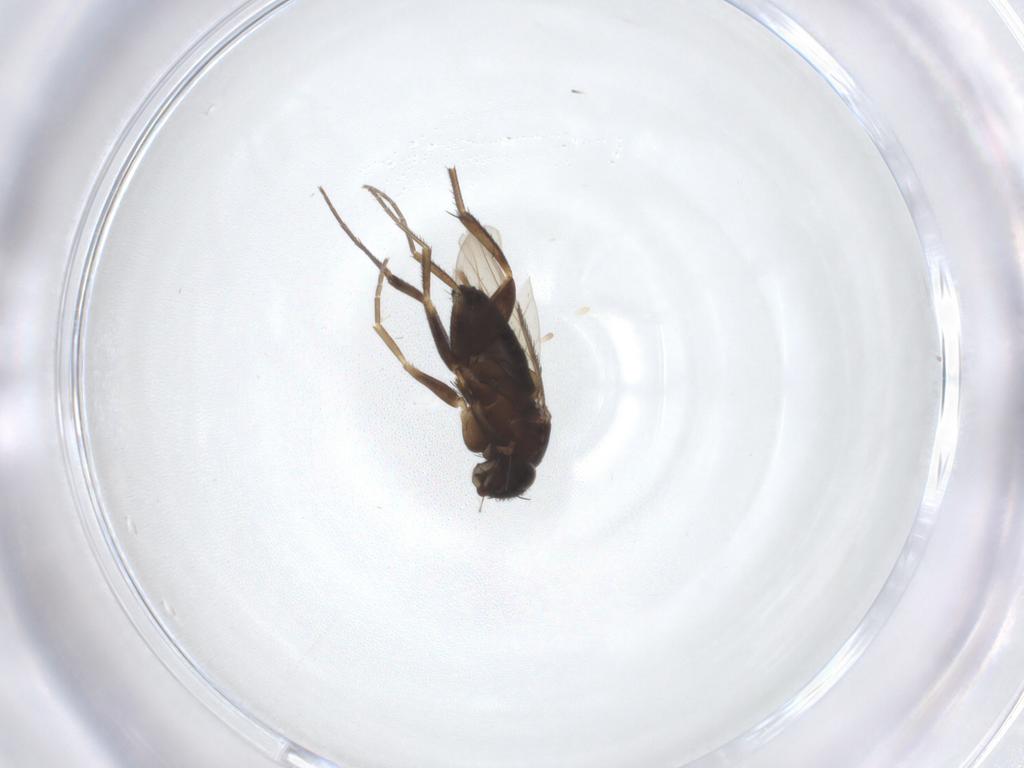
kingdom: Animalia
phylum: Arthropoda
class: Insecta
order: Diptera
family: Phoridae
